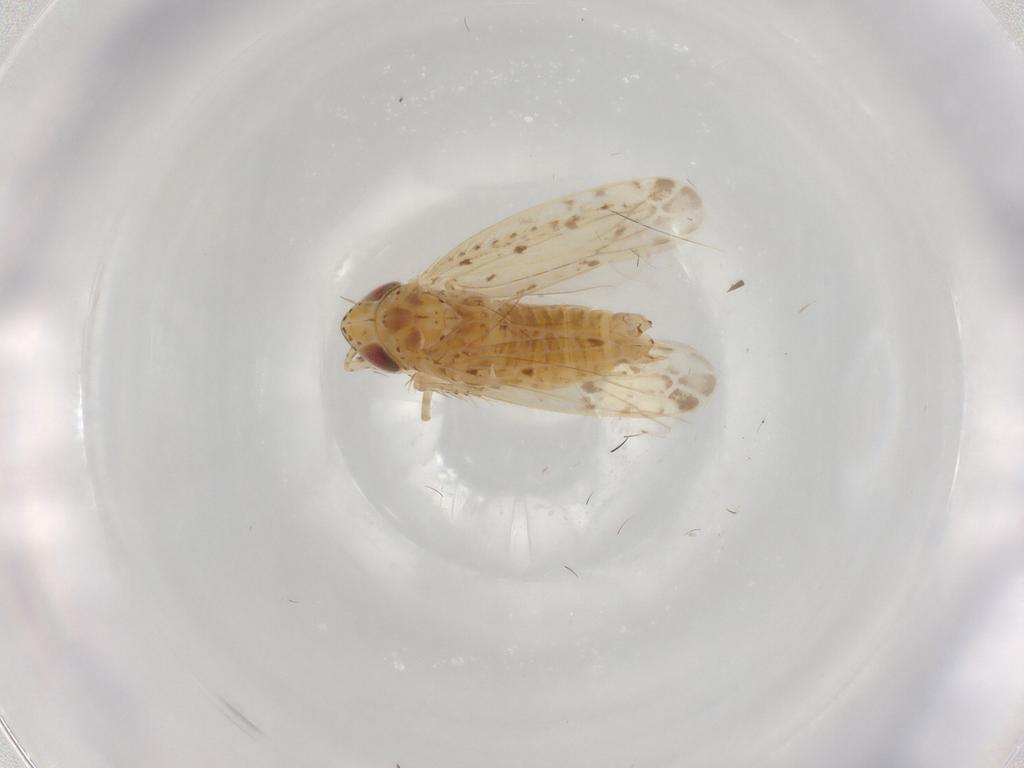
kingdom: Animalia
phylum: Arthropoda
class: Insecta
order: Hemiptera
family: Cicadellidae
